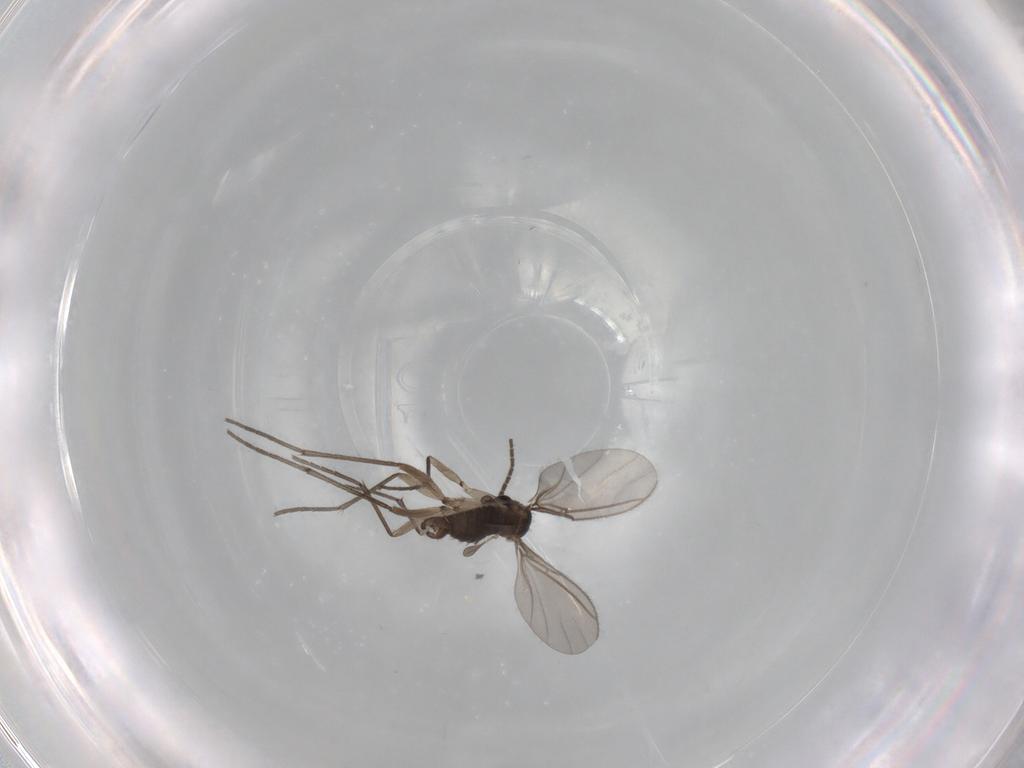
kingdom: Animalia
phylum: Arthropoda
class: Insecta
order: Diptera
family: Sciaridae
